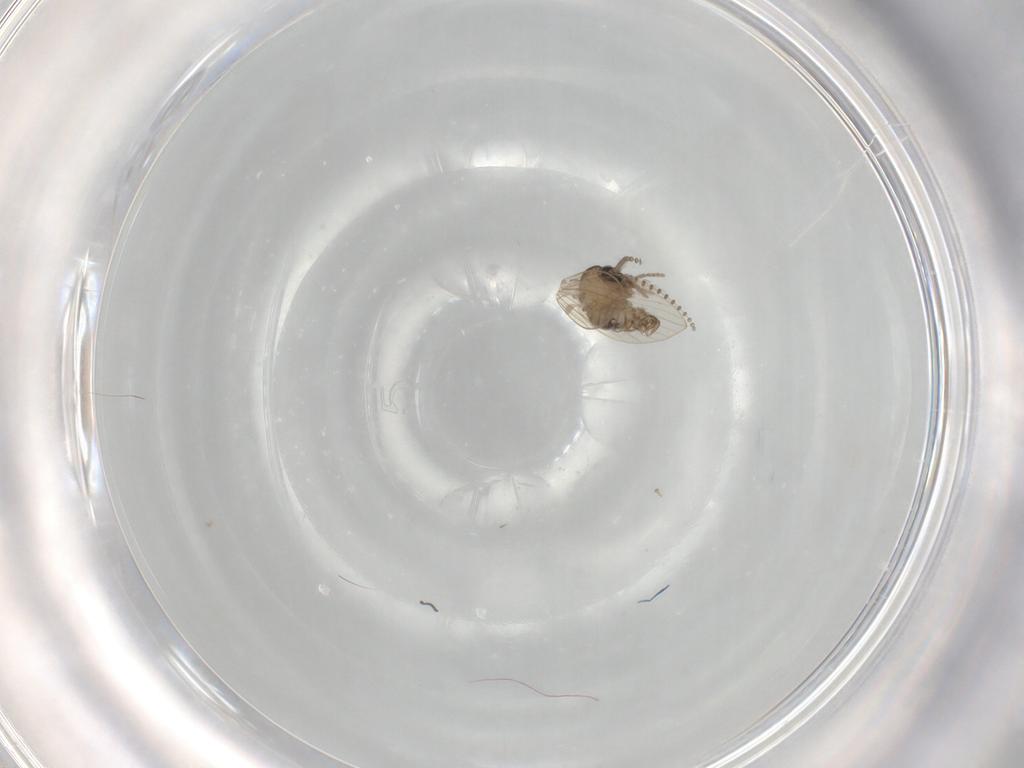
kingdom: Animalia
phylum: Arthropoda
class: Insecta
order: Diptera
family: Psychodidae
